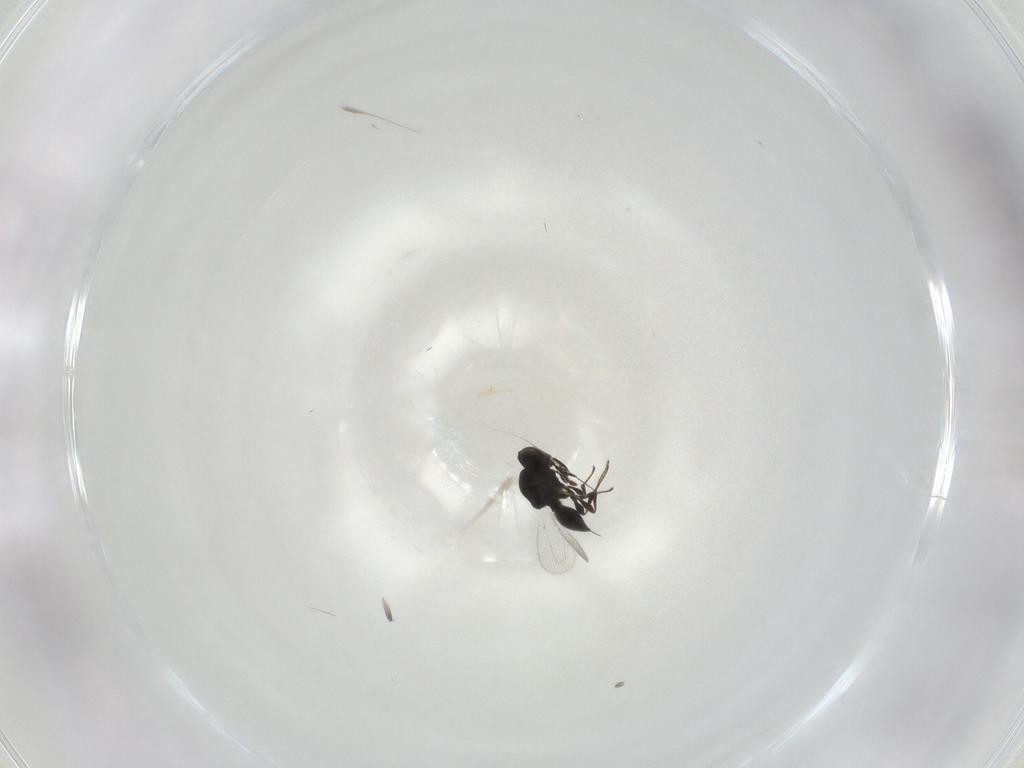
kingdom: Animalia
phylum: Arthropoda
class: Insecta
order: Hymenoptera
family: Platygastridae
